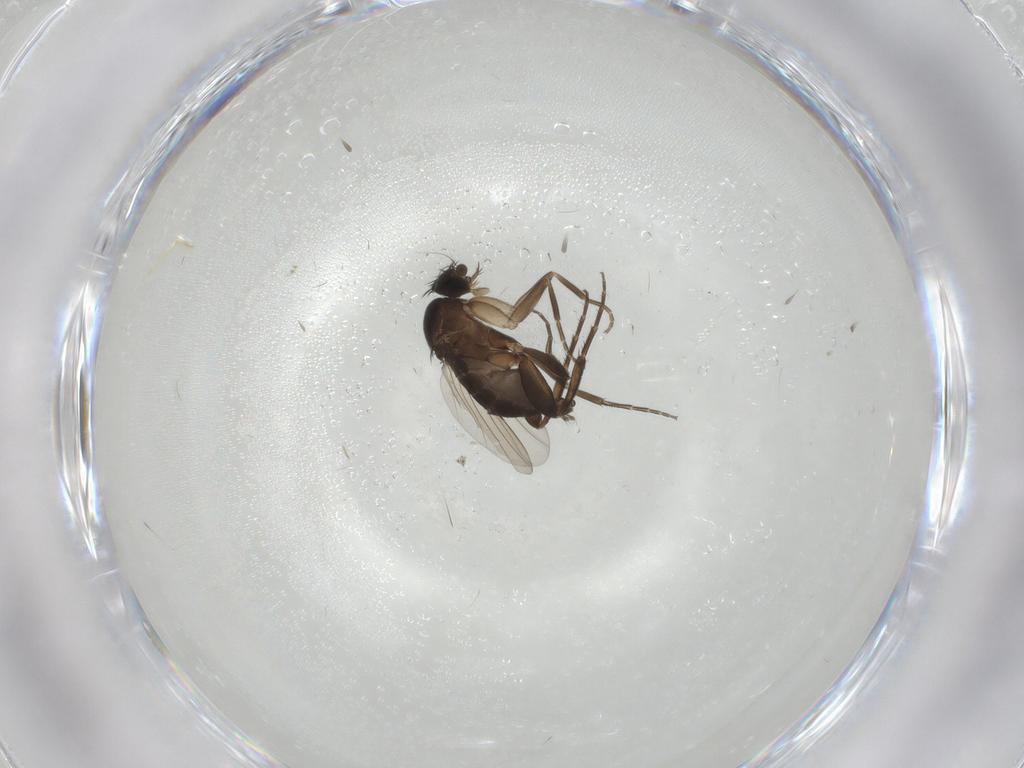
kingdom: Animalia
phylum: Arthropoda
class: Insecta
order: Diptera
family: Phoridae
